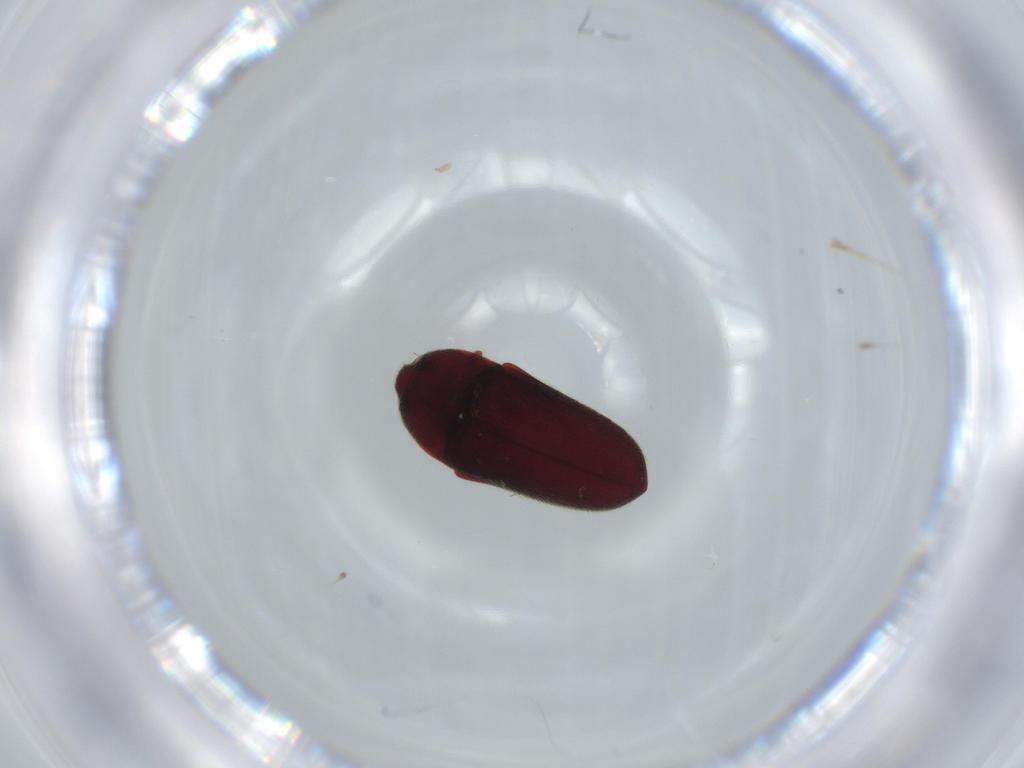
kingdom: Animalia
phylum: Arthropoda
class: Insecta
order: Coleoptera
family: Throscidae
